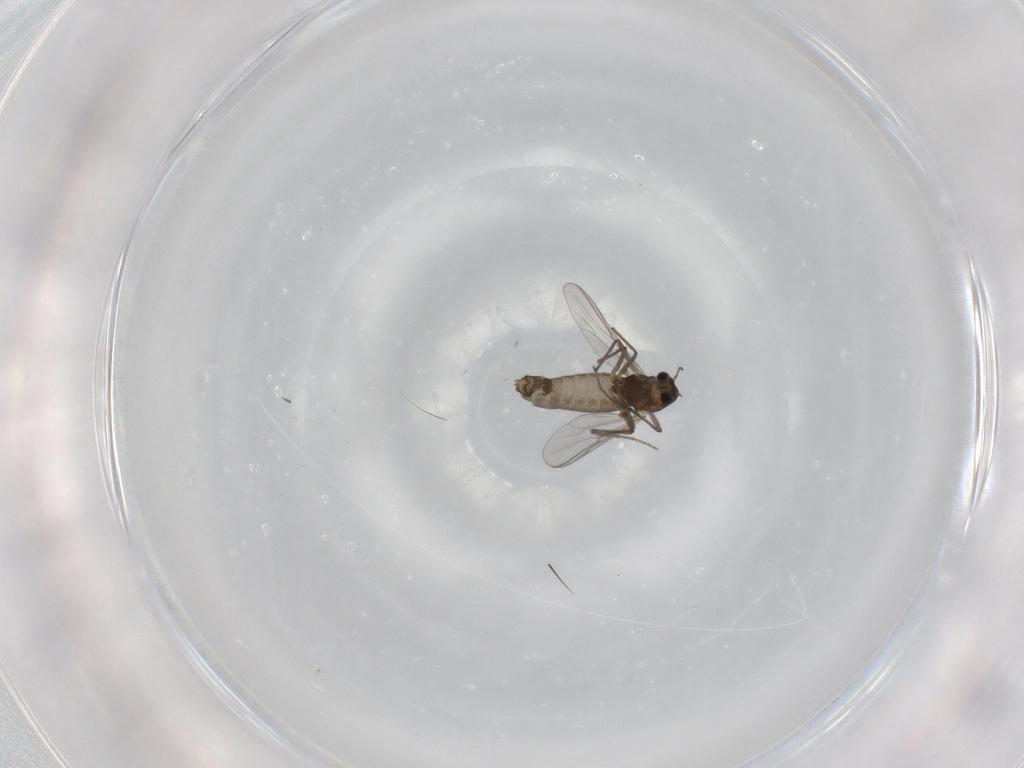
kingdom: Animalia
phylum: Arthropoda
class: Insecta
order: Diptera
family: Chironomidae
